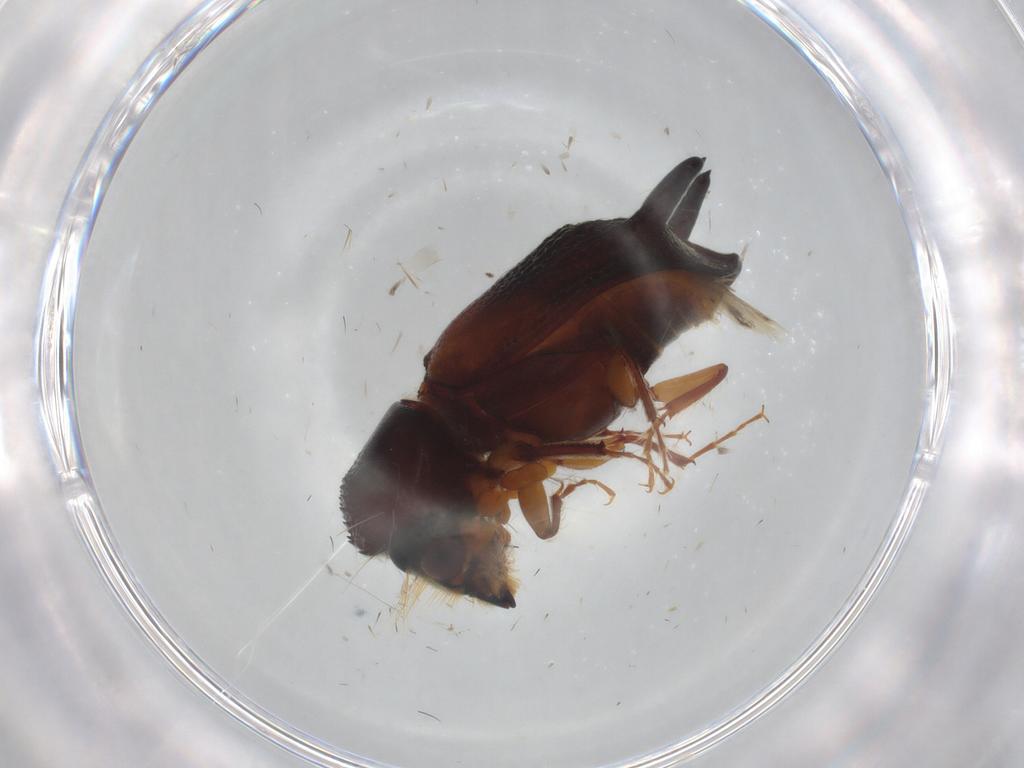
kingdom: Animalia
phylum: Arthropoda
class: Insecta
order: Coleoptera
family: Bostrichidae
